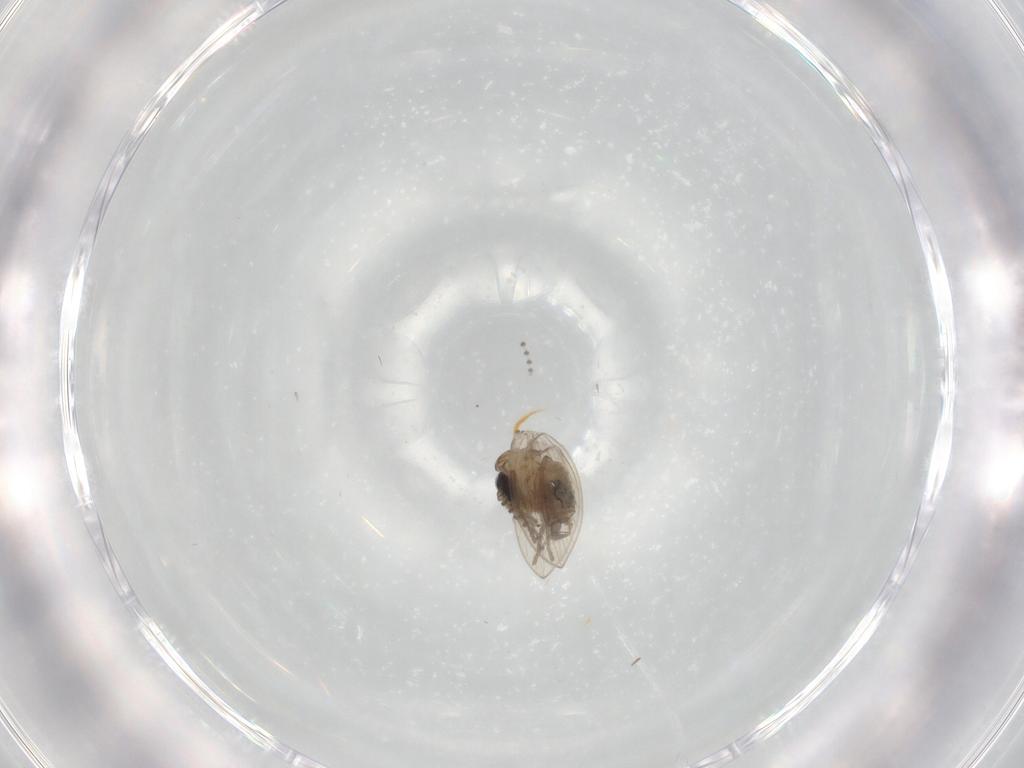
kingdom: Animalia
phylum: Arthropoda
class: Insecta
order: Diptera
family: Psychodidae
